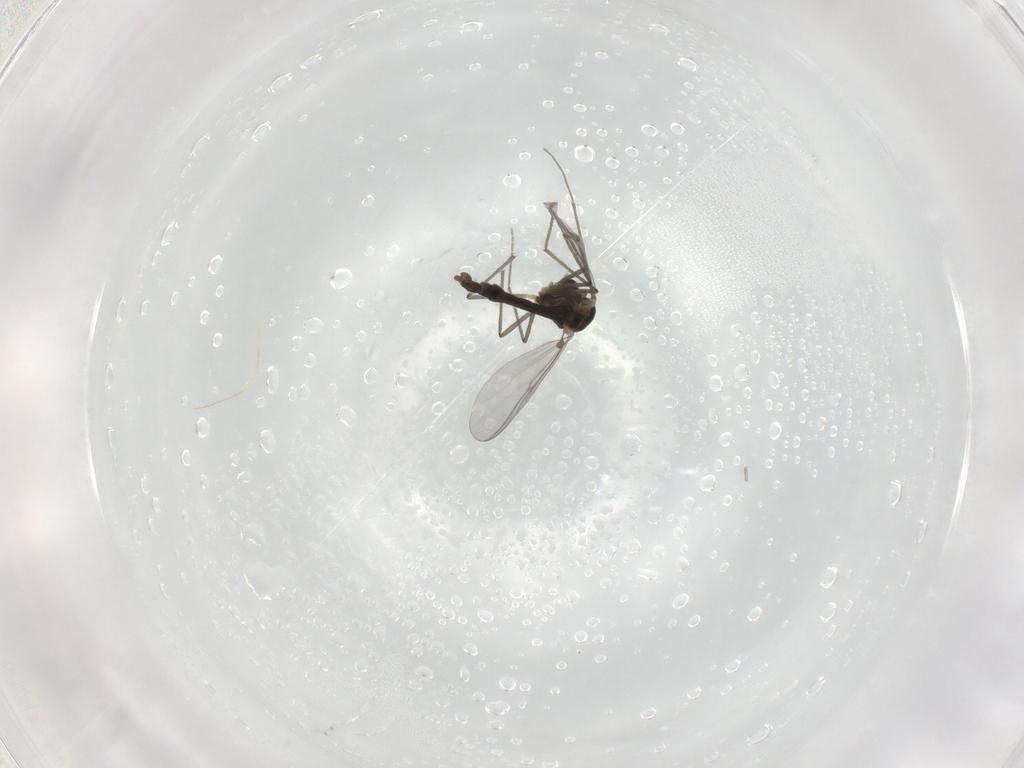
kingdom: Animalia
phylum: Arthropoda
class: Insecta
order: Diptera
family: Chironomidae
